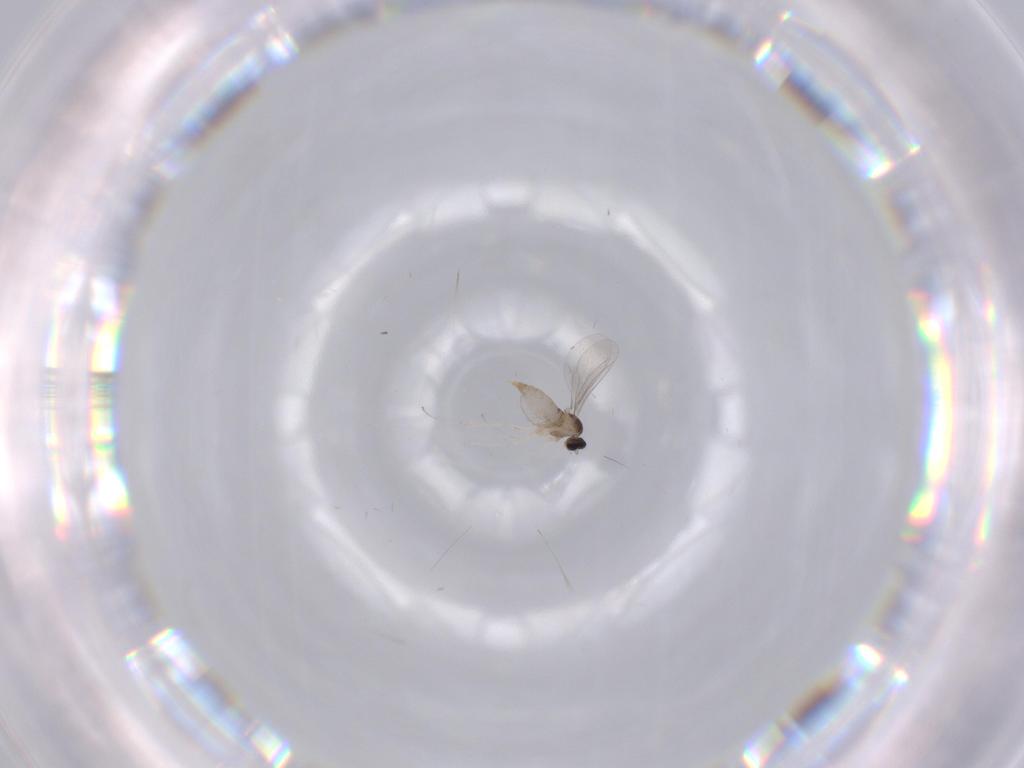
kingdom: Animalia
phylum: Arthropoda
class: Insecta
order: Diptera
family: Cecidomyiidae
